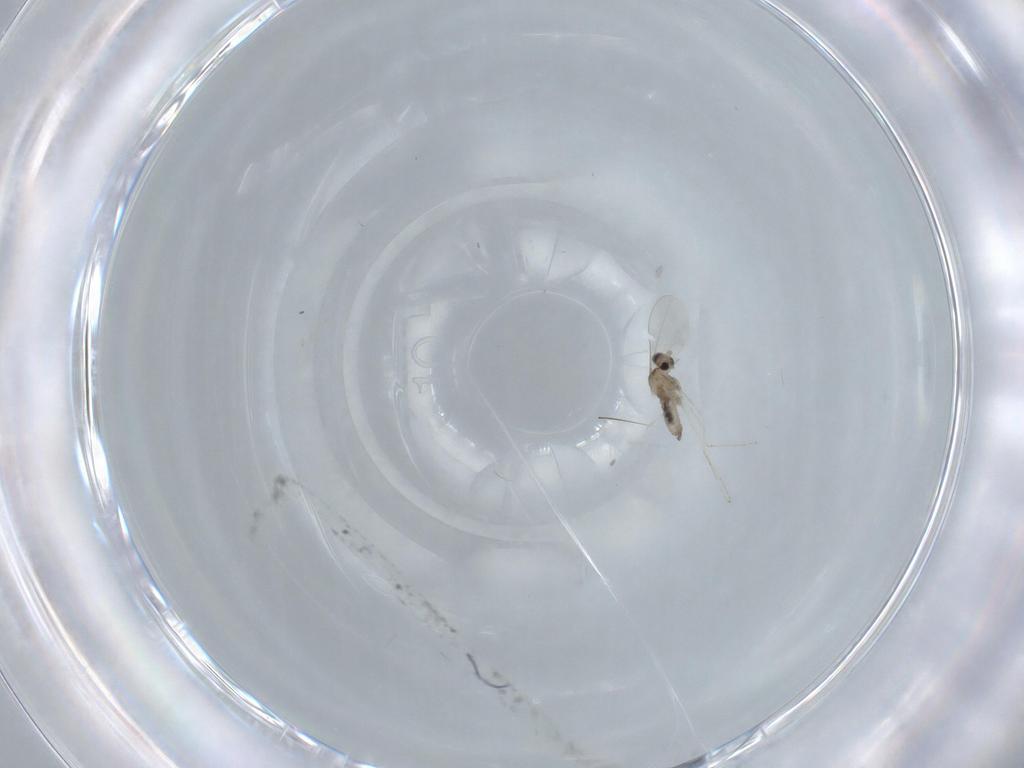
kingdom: Animalia
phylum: Arthropoda
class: Insecta
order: Diptera
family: Cecidomyiidae
